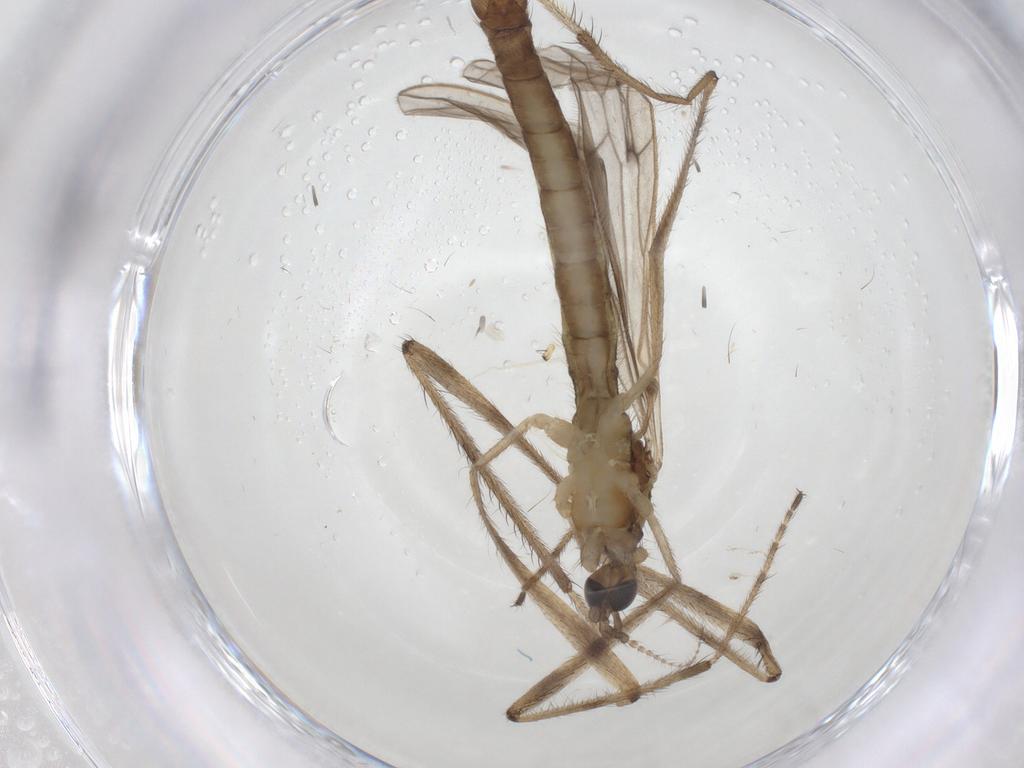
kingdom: Animalia
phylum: Arthropoda
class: Insecta
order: Diptera
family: Limoniidae
